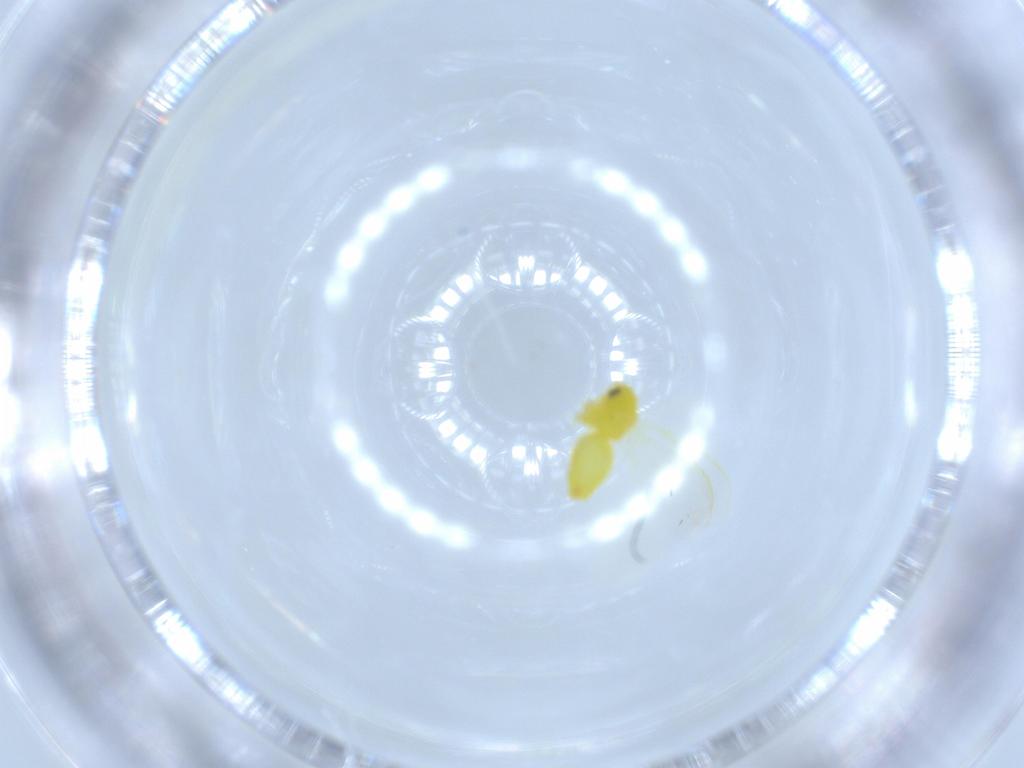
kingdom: Animalia
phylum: Arthropoda
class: Insecta
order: Hemiptera
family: Aleyrodidae
